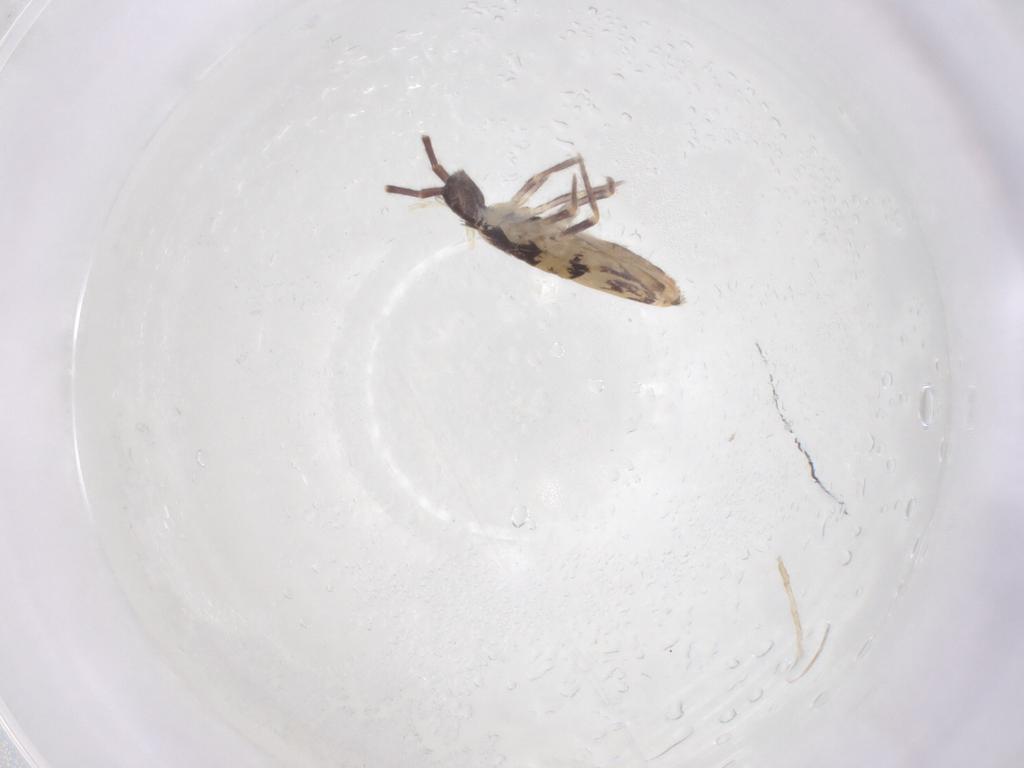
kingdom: Animalia
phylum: Arthropoda
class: Collembola
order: Entomobryomorpha
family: Entomobryidae
